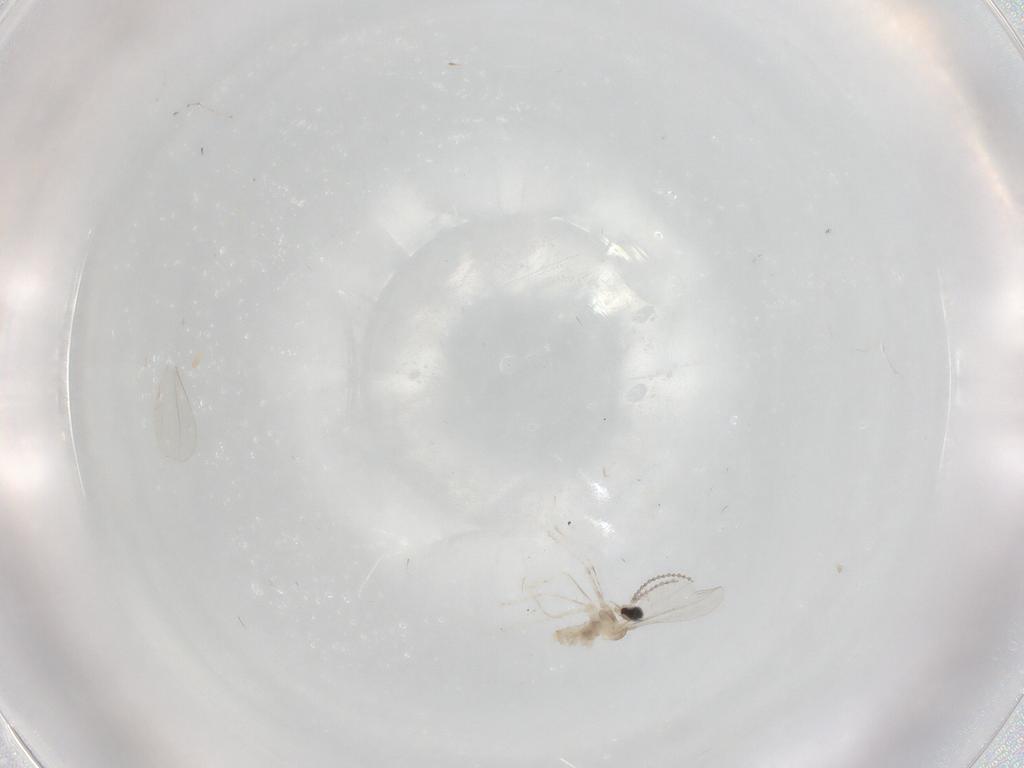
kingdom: Animalia
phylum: Arthropoda
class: Insecta
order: Diptera
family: Cecidomyiidae
